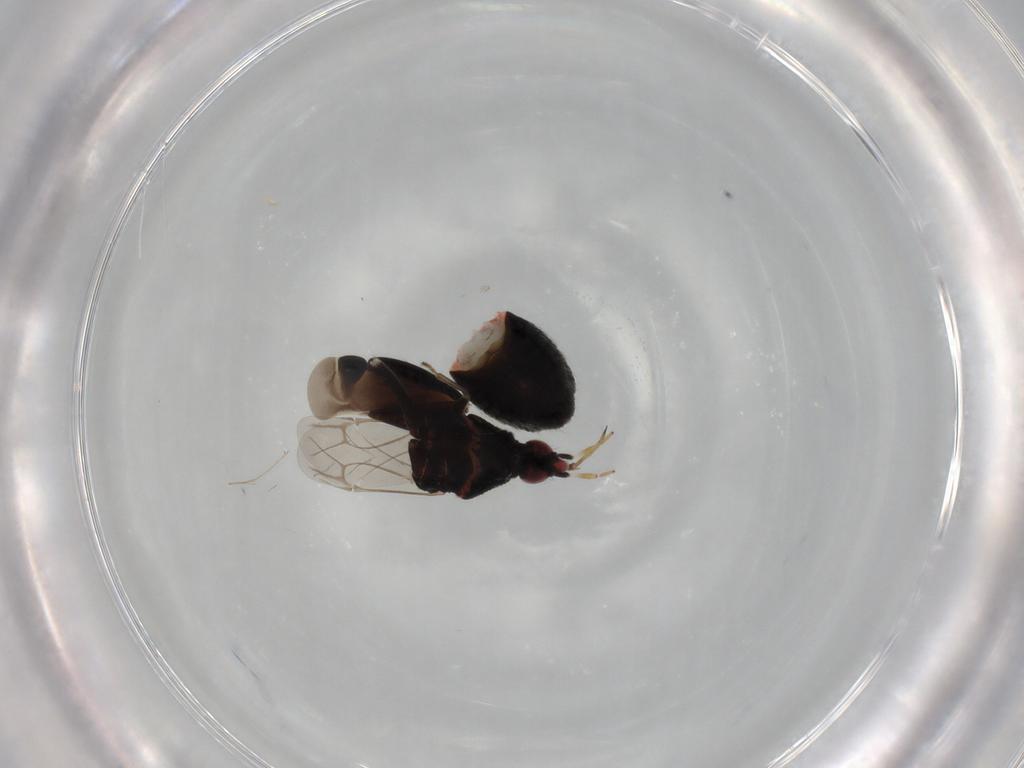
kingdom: Animalia
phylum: Arthropoda
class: Insecta
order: Hemiptera
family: Miridae
